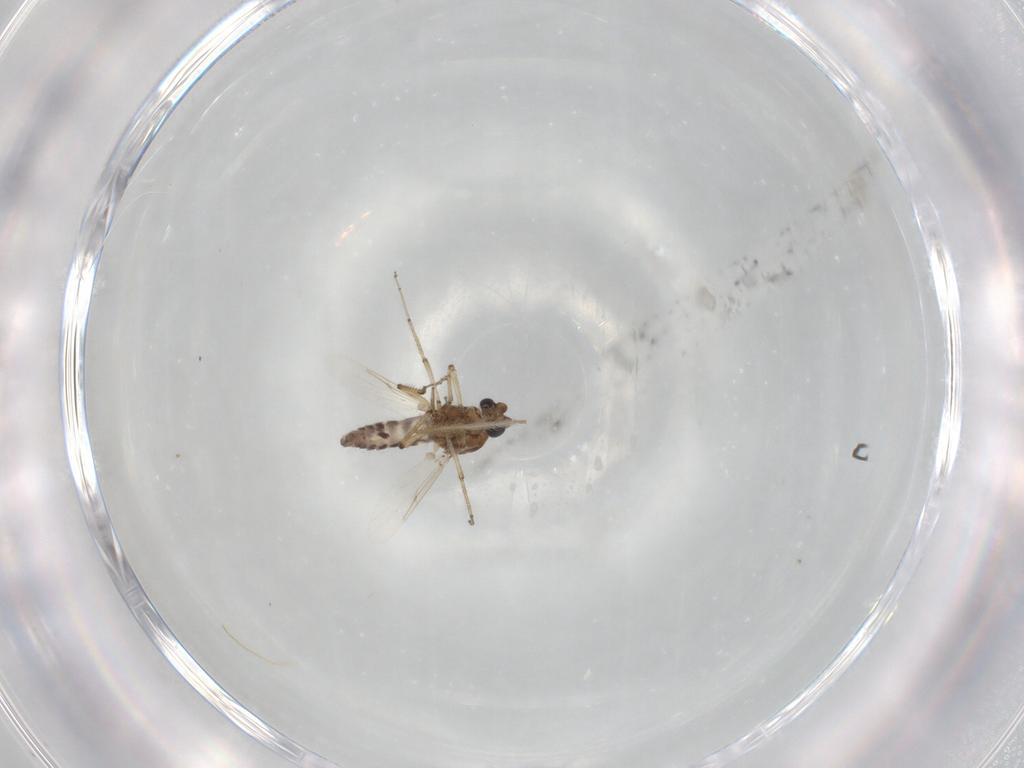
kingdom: Animalia
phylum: Arthropoda
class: Insecta
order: Diptera
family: Ceratopogonidae
